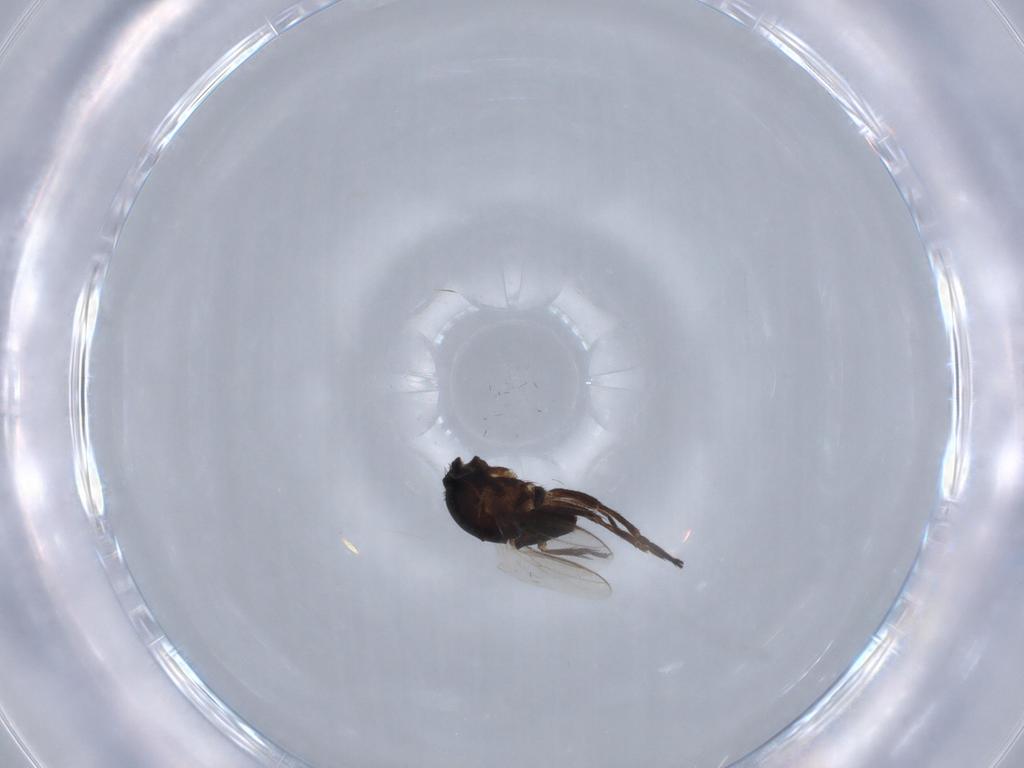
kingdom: Animalia
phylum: Arthropoda
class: Insecta
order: Diptera
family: Sphaeroceridae
